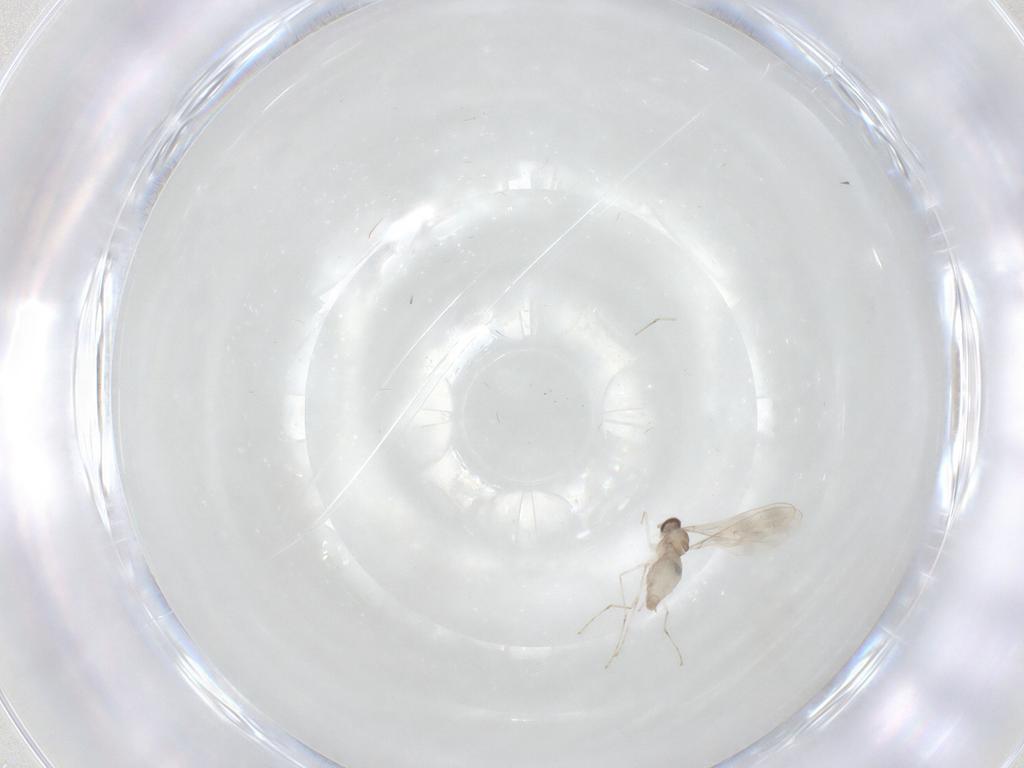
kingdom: Animalia
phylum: Arthropoda
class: Insecta
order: Diptera
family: Cecidomyiidae
